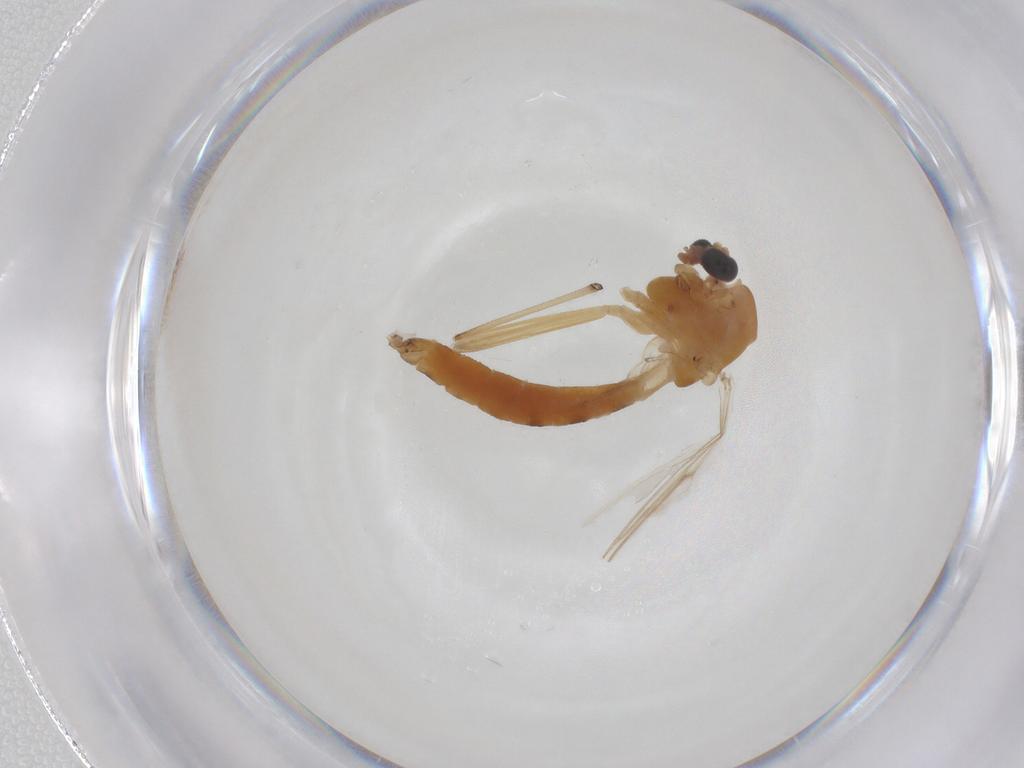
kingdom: Animalia
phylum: Arthropoda
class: Insecta
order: Diptera
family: Chironomidae
